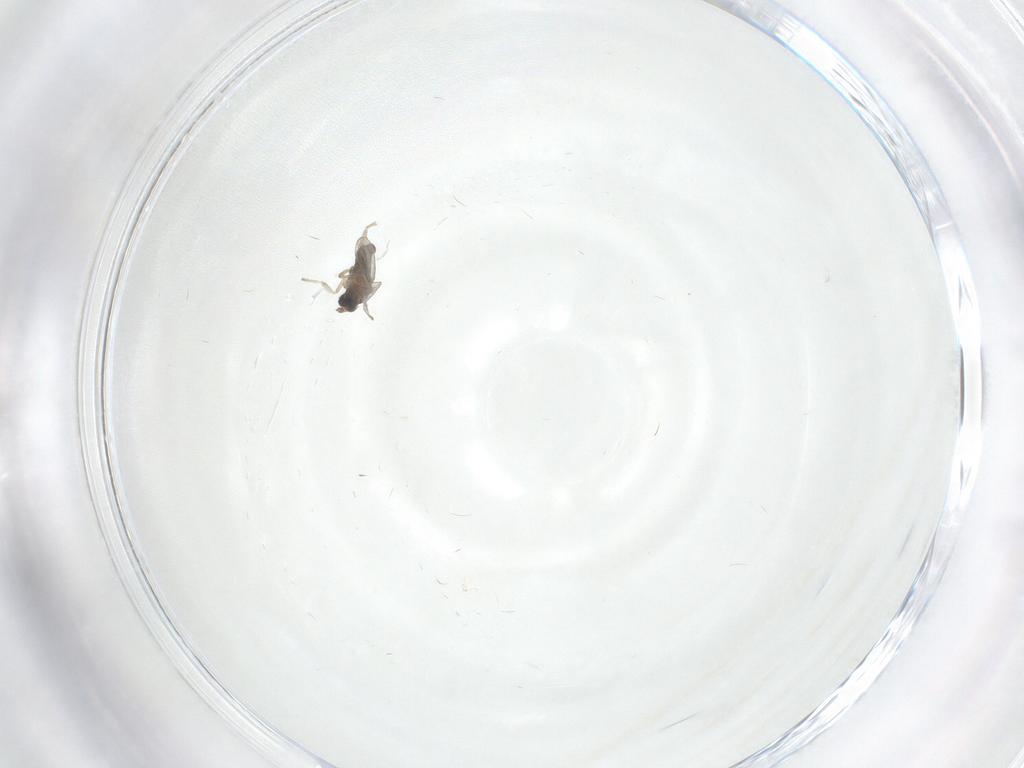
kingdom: Animalia
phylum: Arthropoda
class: Insecta
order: Diptera
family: Cecidomyiidae
